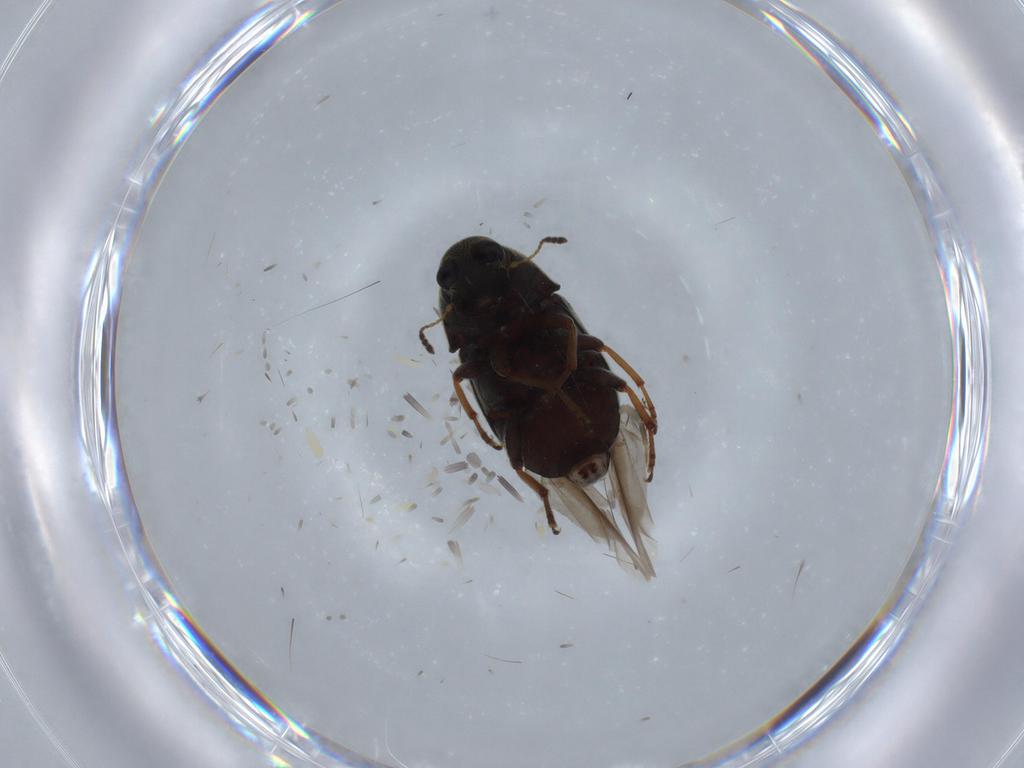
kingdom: Animalia
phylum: Arthropoda
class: Insecta
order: Coleoptera
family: Anthribidae
